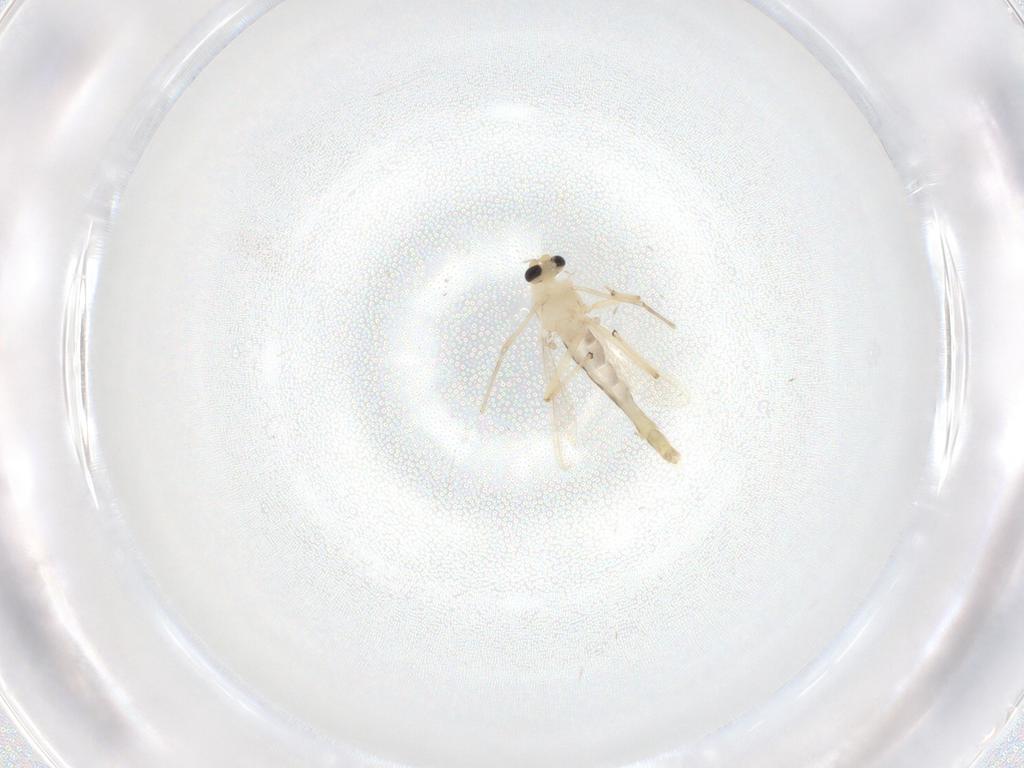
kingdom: Animalia
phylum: Arthropoda
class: Insecta
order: Diptera
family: Chironomidae
